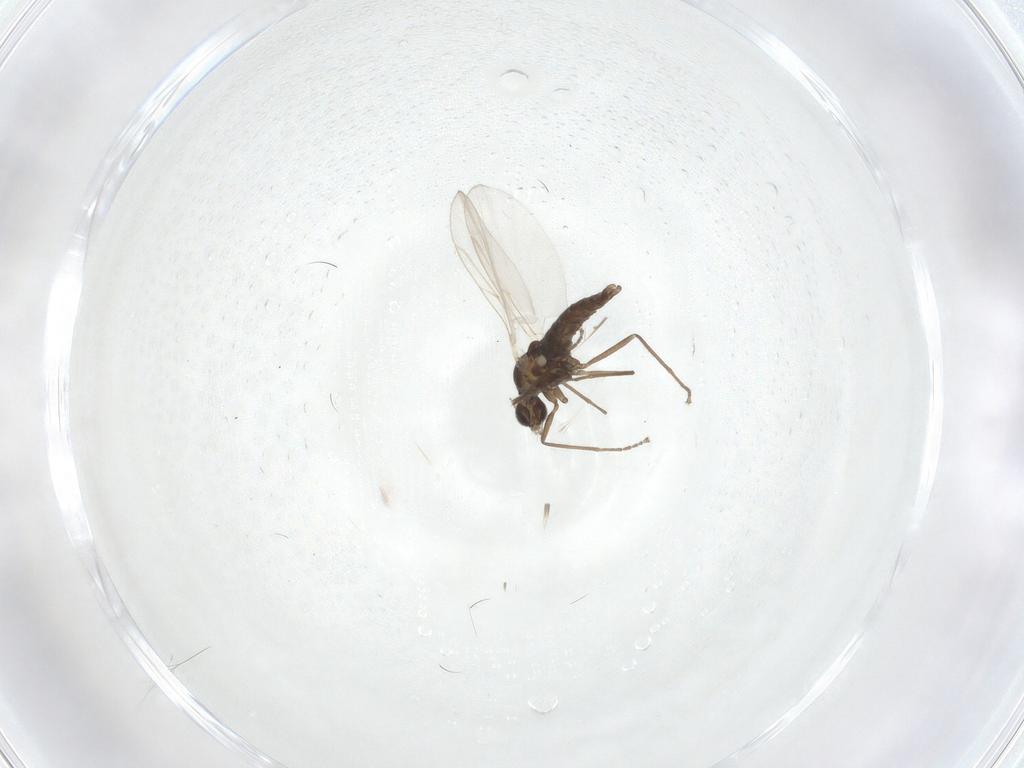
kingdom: Animalia
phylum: Arthropoda
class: Insecta
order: Diptera
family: Cecidomyiidae
